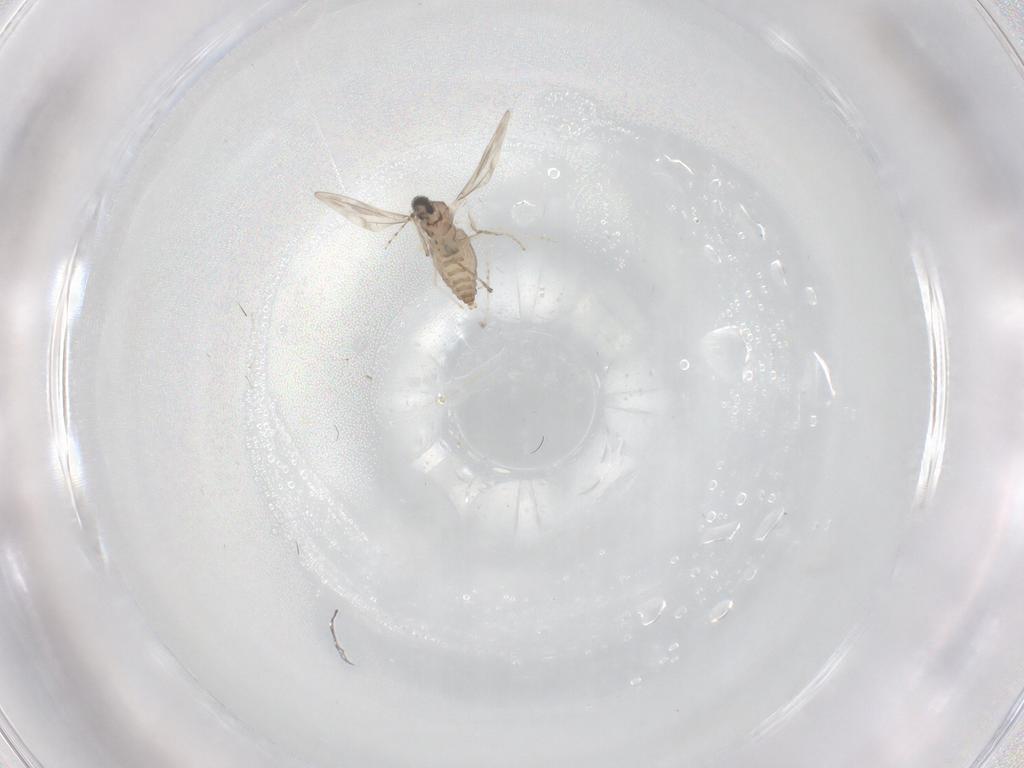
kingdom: Animalia
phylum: Arthropoda
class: Insecta
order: Diptera
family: Cecidomyiidae
